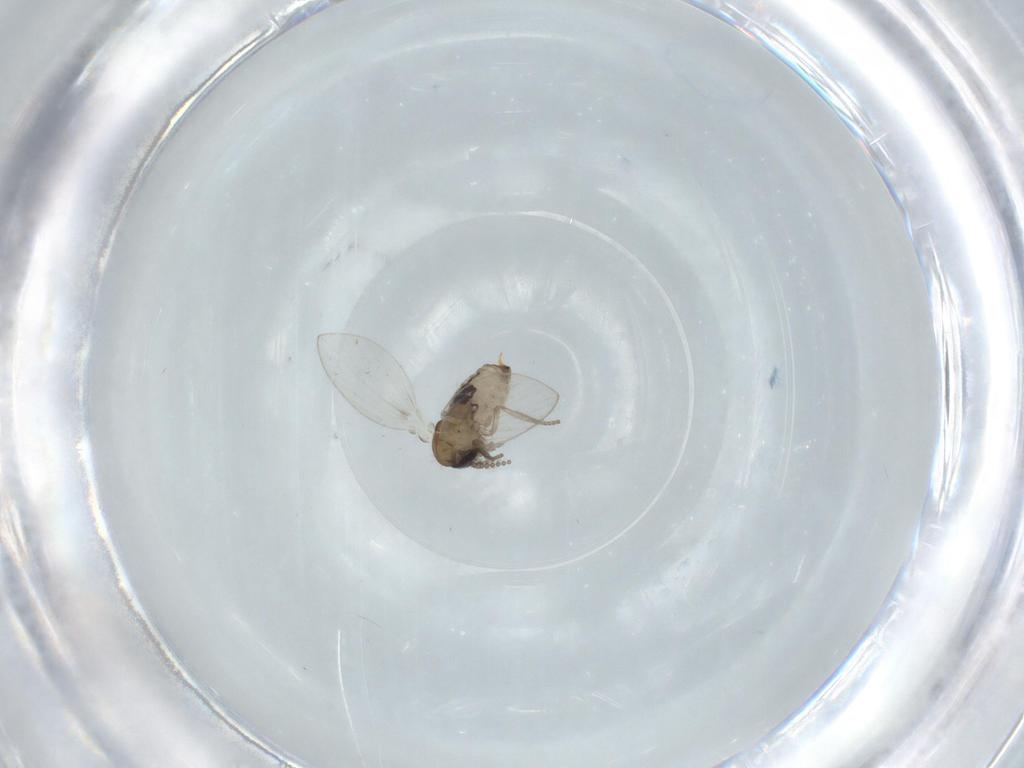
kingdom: Animalia
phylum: Arthropoda
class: Insecta
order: Diptera
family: Psychodidae
